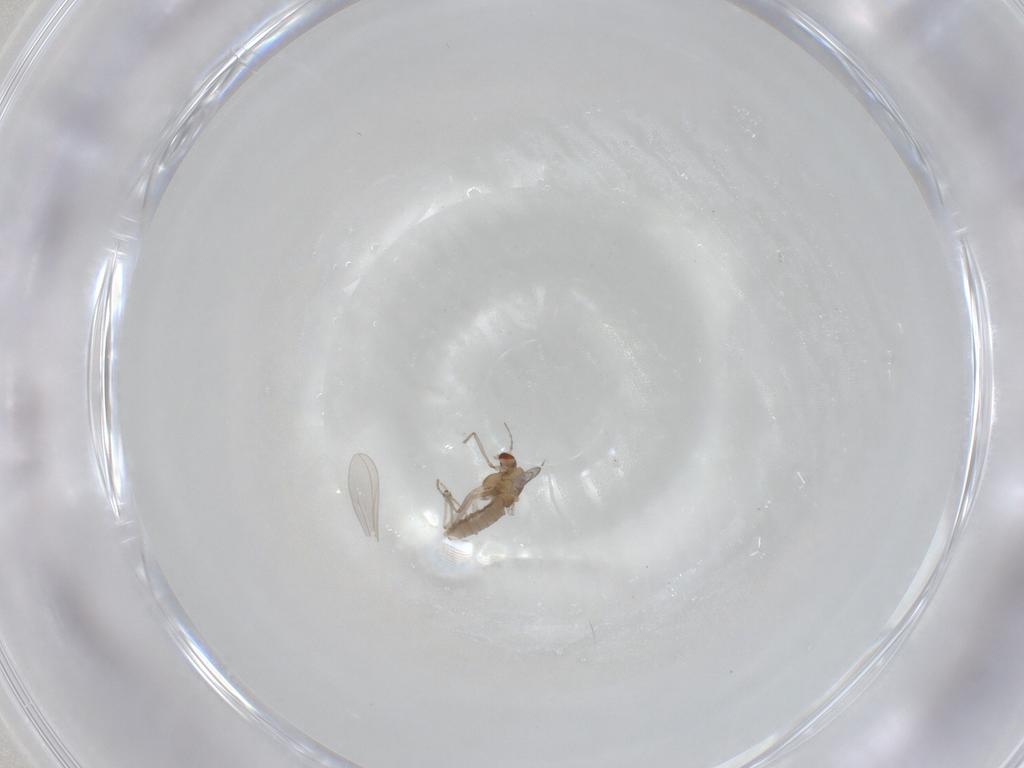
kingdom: Animalia
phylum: Arthropoda
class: Insecta
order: Diptera
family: Chironomidae
